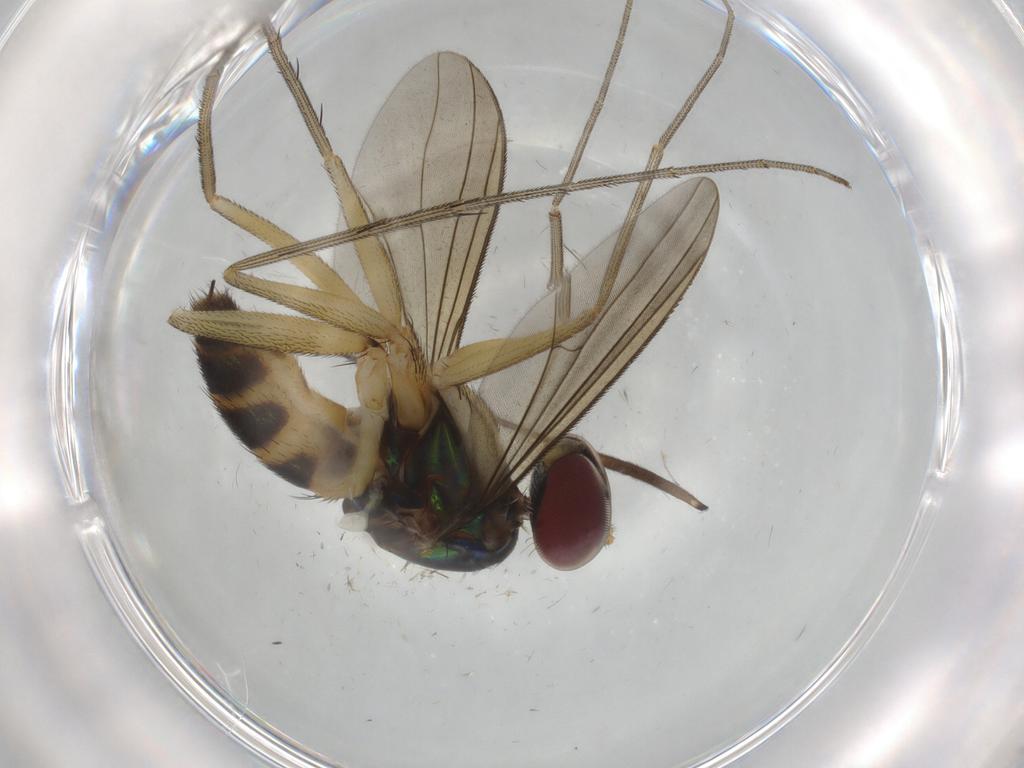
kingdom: Animalia
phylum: Arthropoda
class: Insecta
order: Diptera
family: Dolichopodidae
